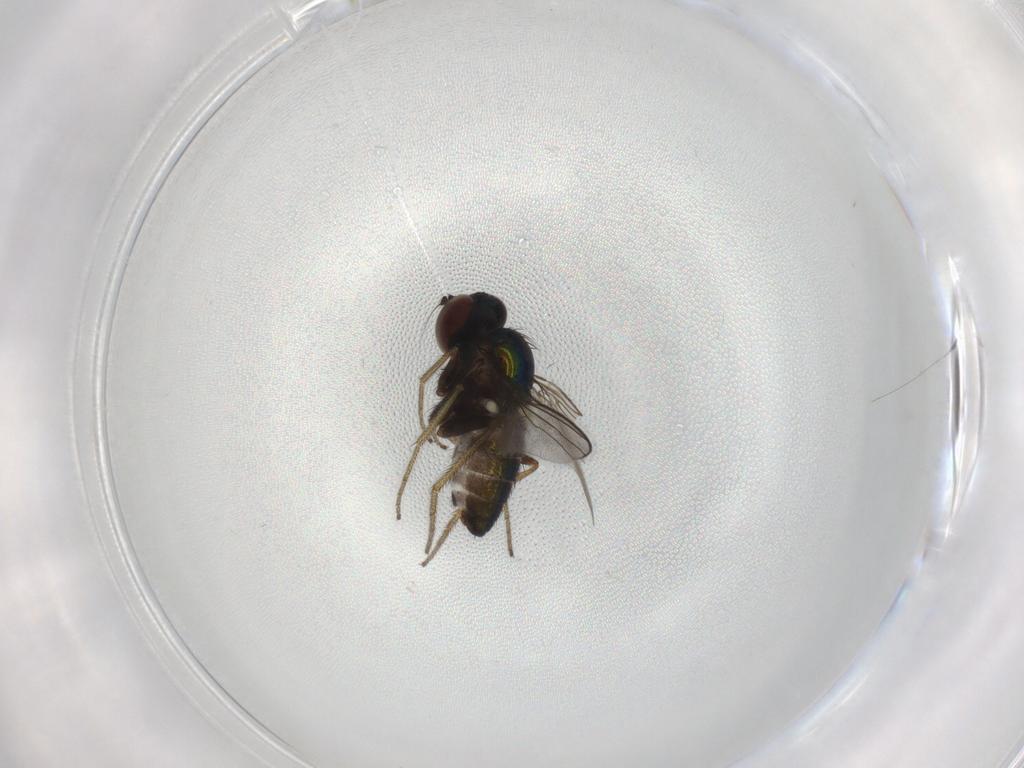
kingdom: Animalia
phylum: Arthropoda
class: Insecta
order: Diptera
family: Dolichopodidae
